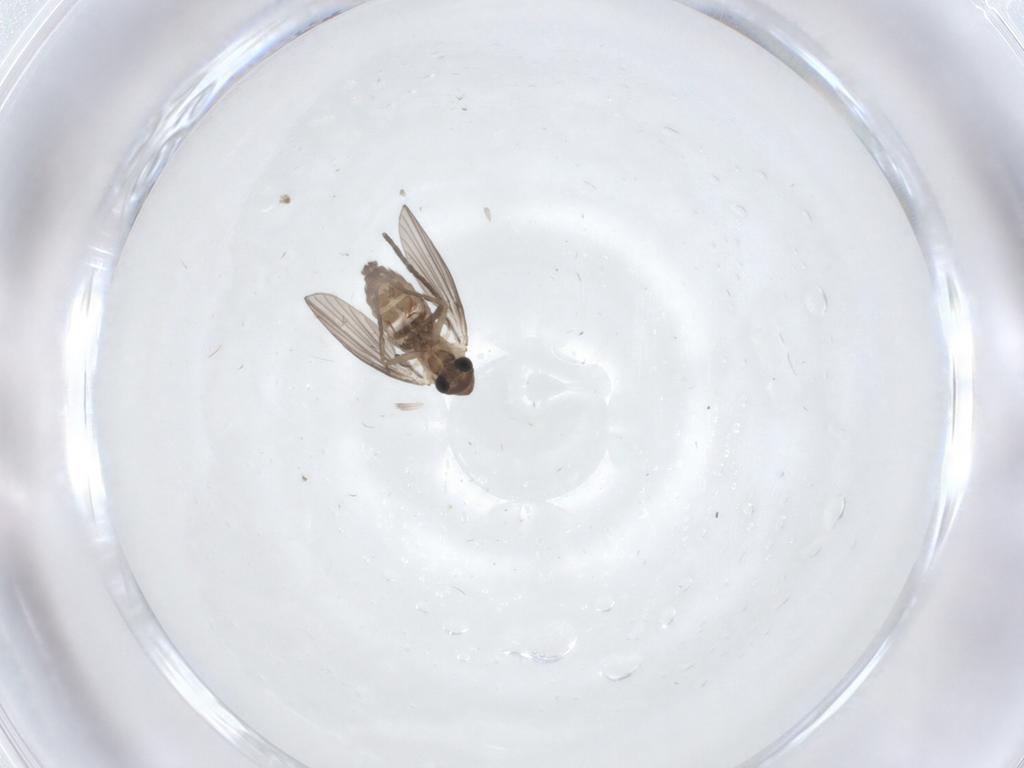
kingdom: Animalia
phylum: Arthropoda
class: Insecta
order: Diptera
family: Psychodidae
